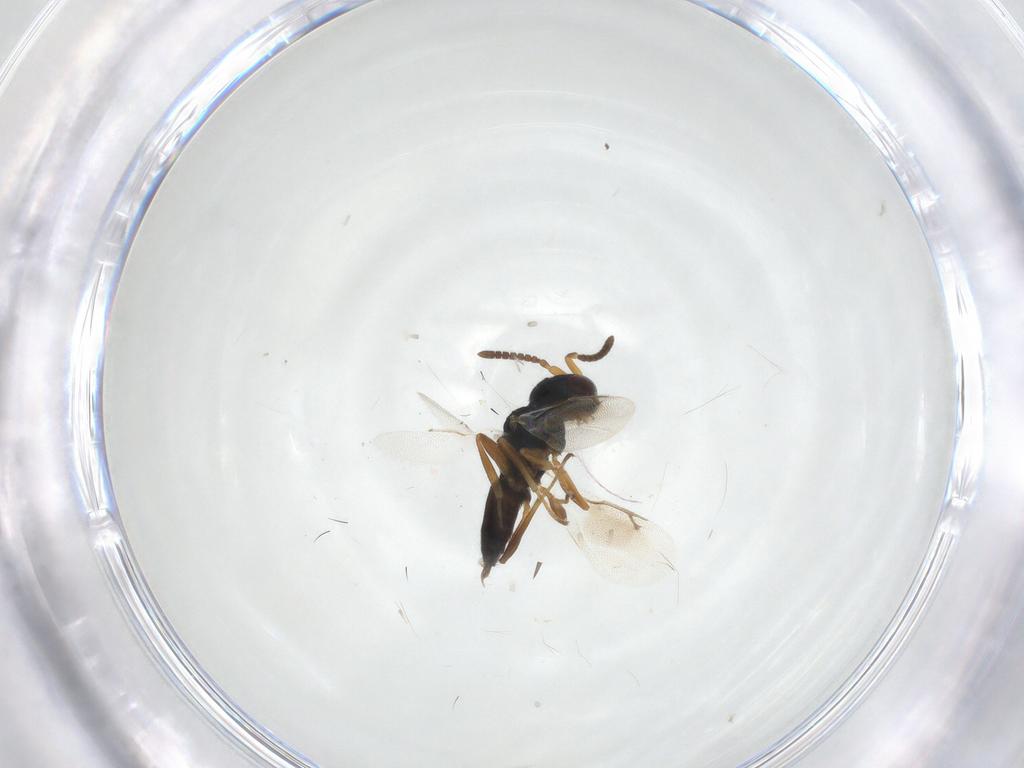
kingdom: Animalia
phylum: Arthropoda
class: Insecta
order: Hymenoptera
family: Pteromalidae
